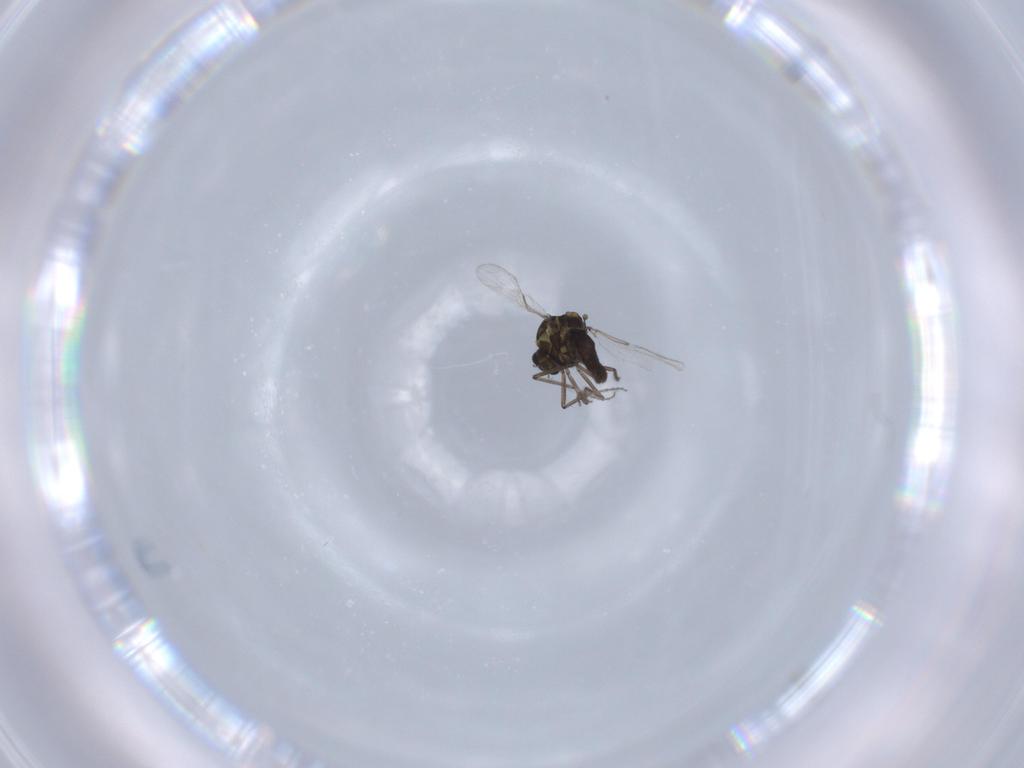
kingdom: Animalia
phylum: Arthropoda
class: Insecta
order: Diptera
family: Ceratopogonidae
